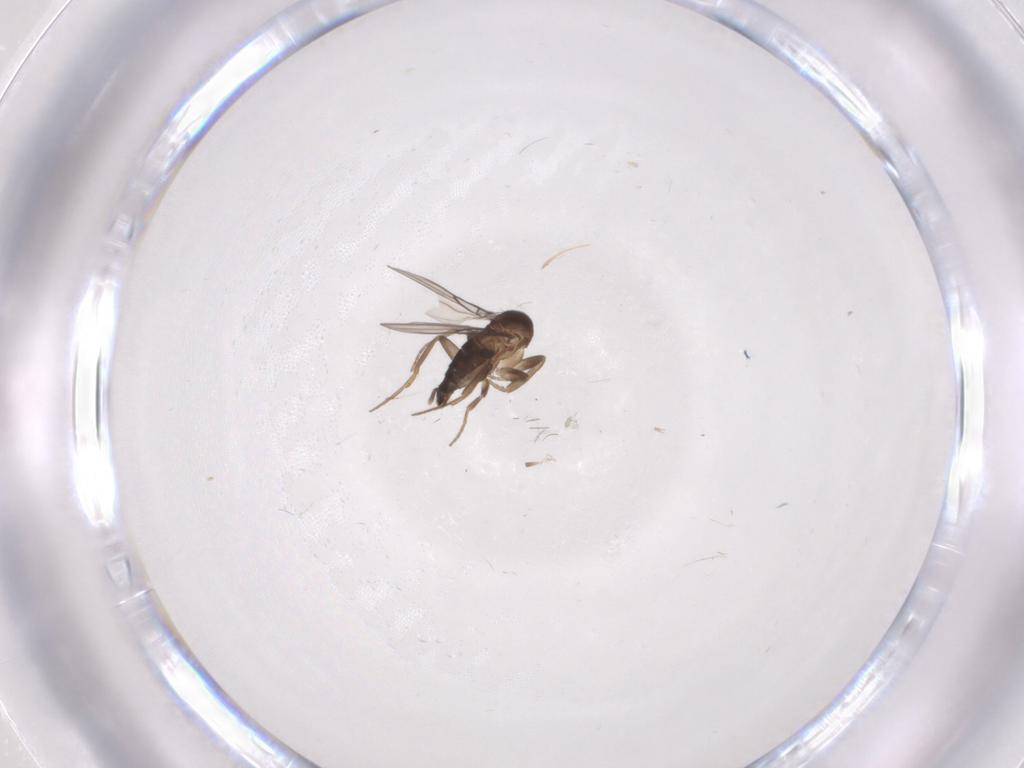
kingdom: Animalia
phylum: Arthropoda
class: Insecta
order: Diptera
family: Phoridae
